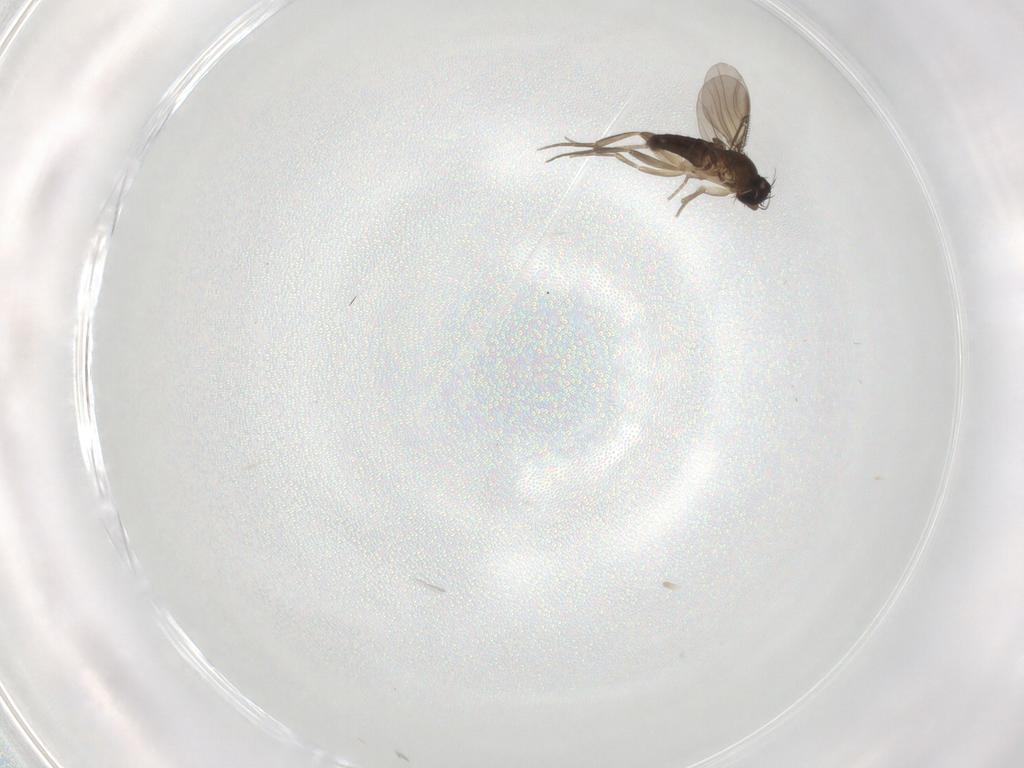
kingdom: Animalia
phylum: Arthropoda
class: Insecta
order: Diptera
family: Phoridae
